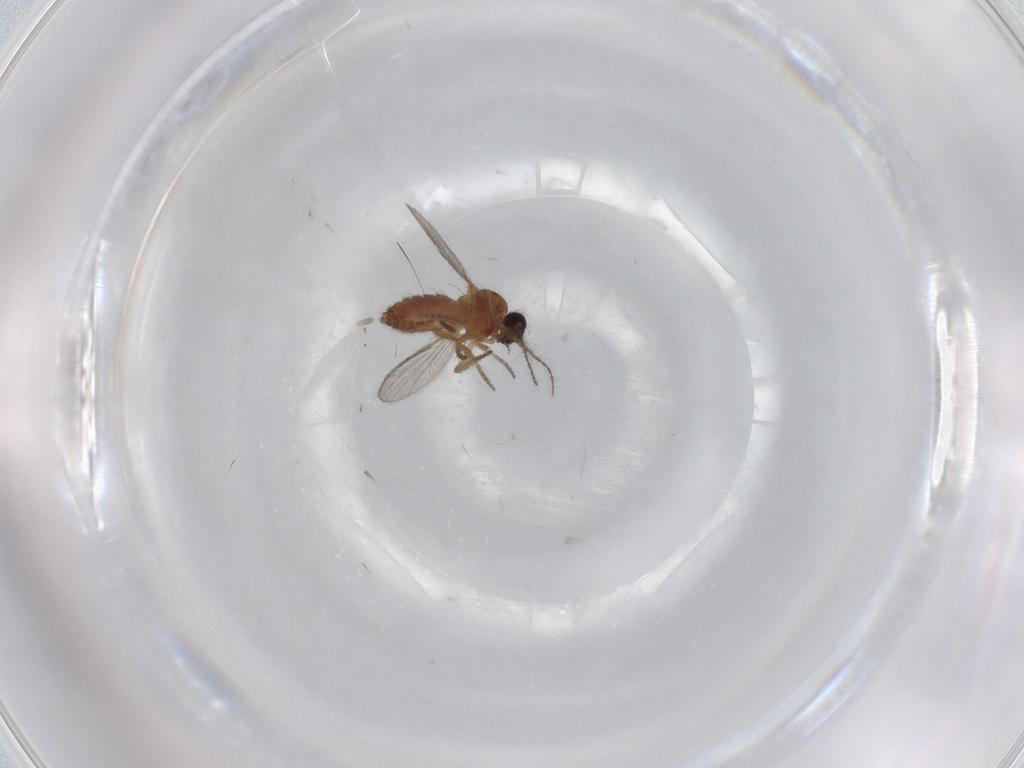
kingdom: Animalia
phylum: Arthropoda
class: Insecta
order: Diptera
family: Ceratopogonidae
